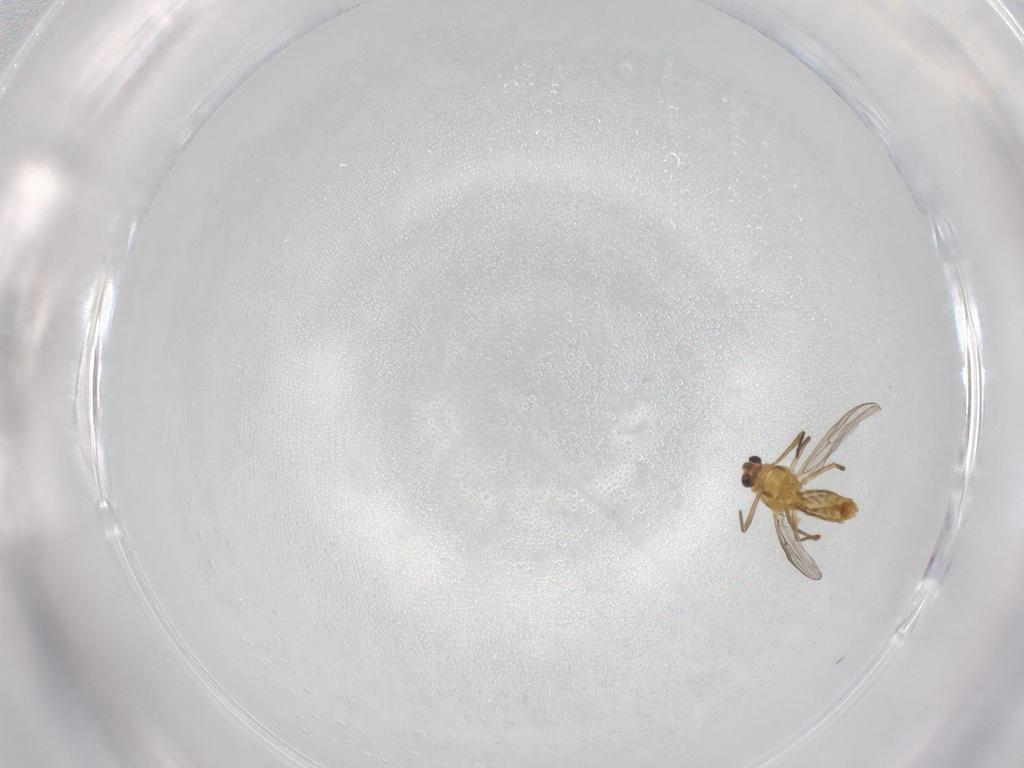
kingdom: Animalia
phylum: Arthropoda
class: Insecta
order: Diptera
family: Chironomidae
